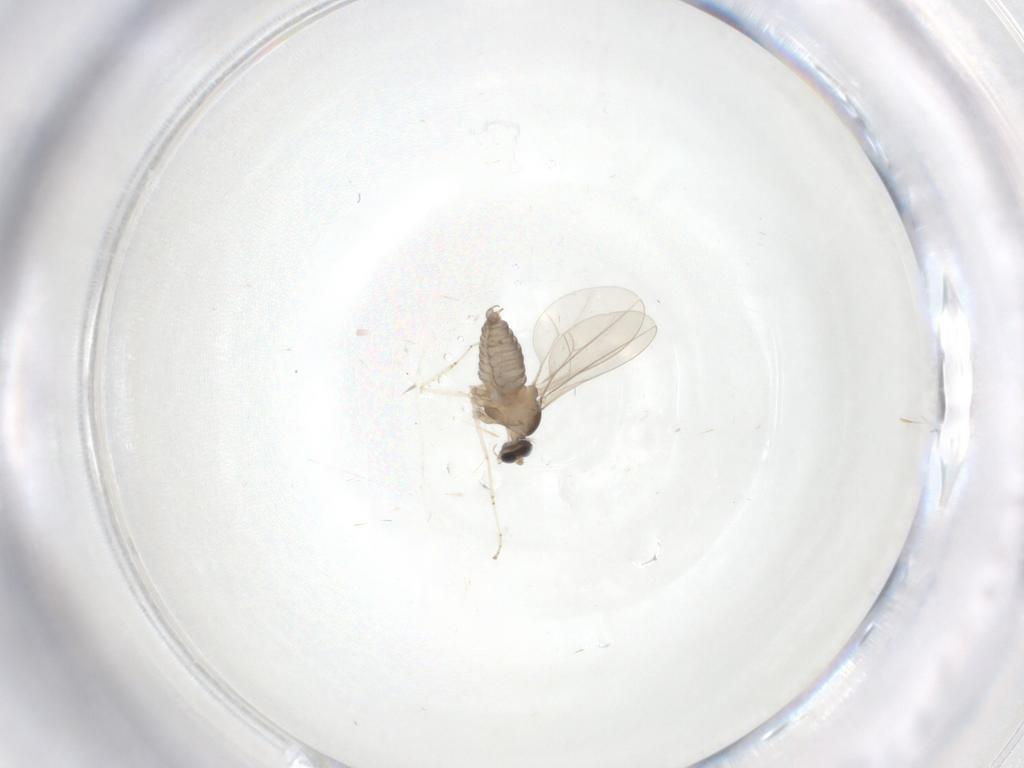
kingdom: Animalia
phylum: Arthropoda
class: Insecta
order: Diptera
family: Cecidomyiidae
